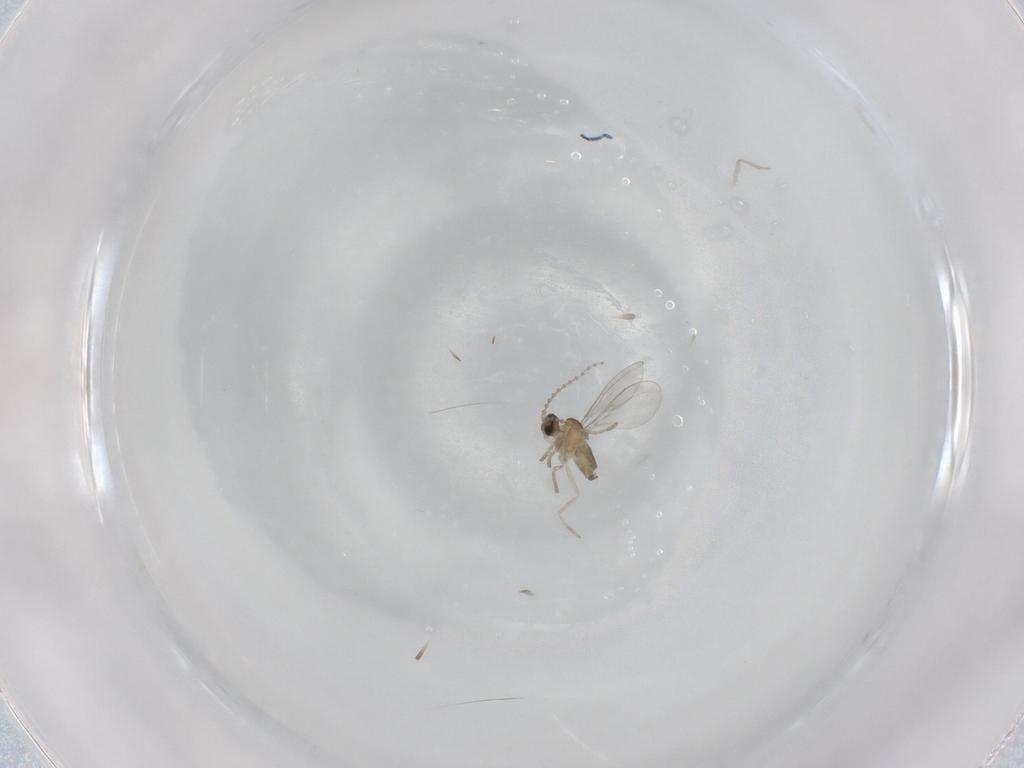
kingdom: Animalia
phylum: Arthropoda
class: Insecta
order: Diptera
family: Cecidomyiidae
